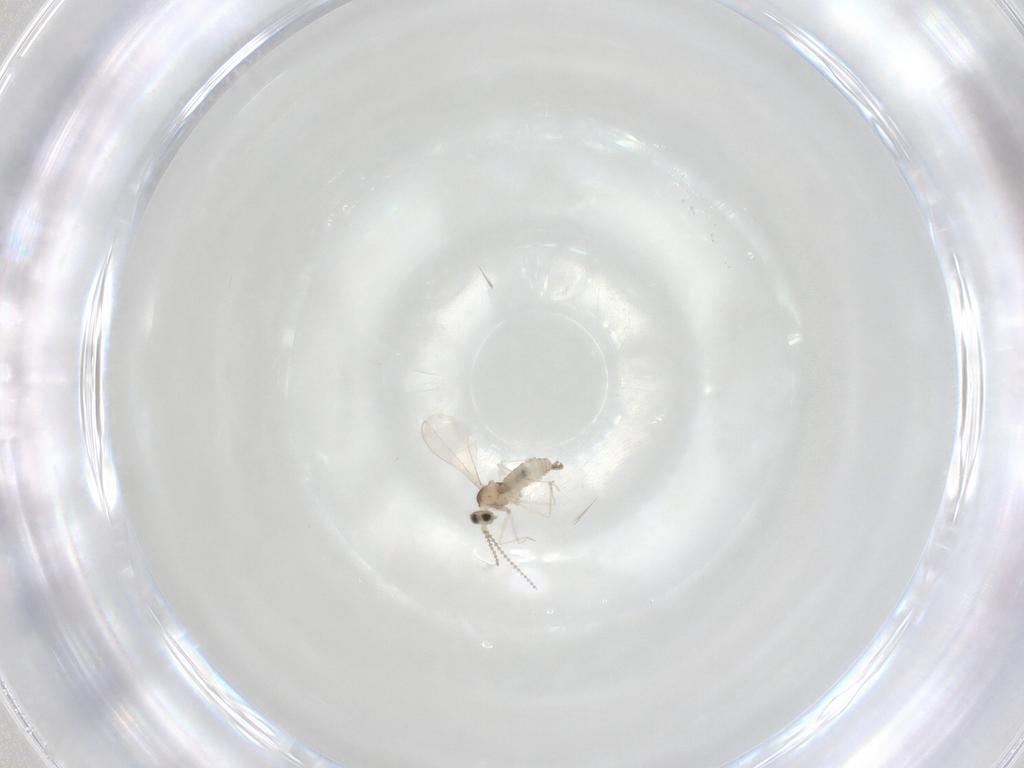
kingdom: Animalia
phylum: Arthropoda
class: Insecta
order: Diptera
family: Cecidomyiidae
